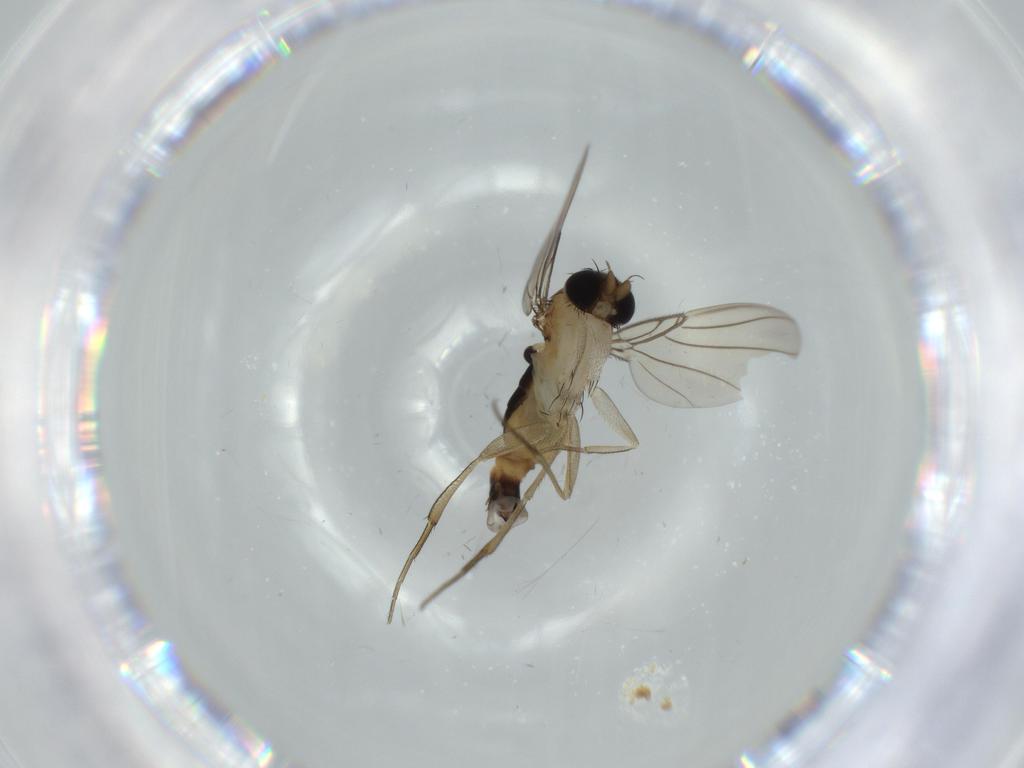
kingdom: Animalia
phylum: Arthropoda
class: Insecta
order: Diptera
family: Phoridae
